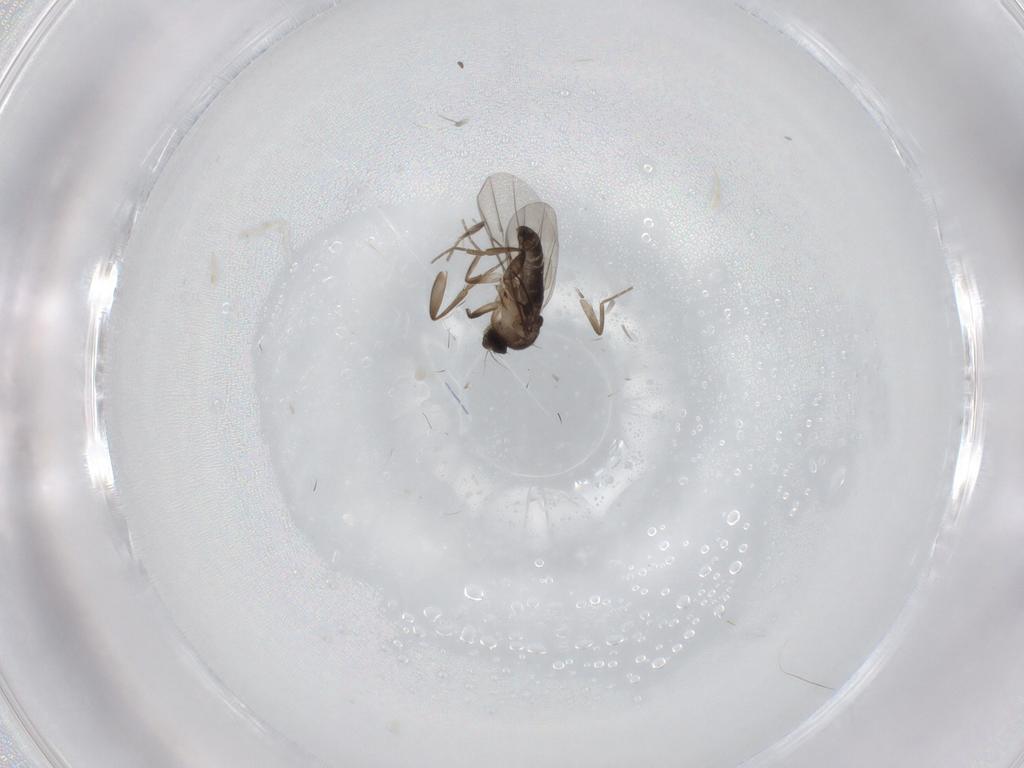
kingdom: Animalia
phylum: Arthropoda
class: Insecta
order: Diptera
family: Phoridae
